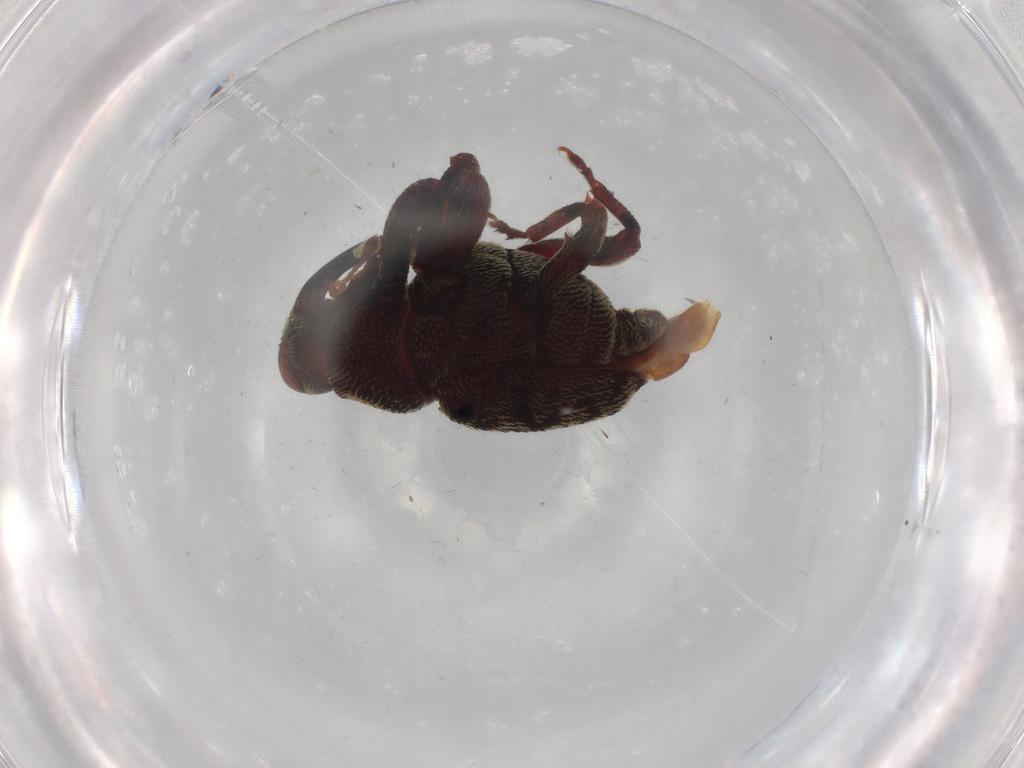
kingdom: Animalia
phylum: Arthropoda
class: Insecta
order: Coleoptera
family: Curculionidae
